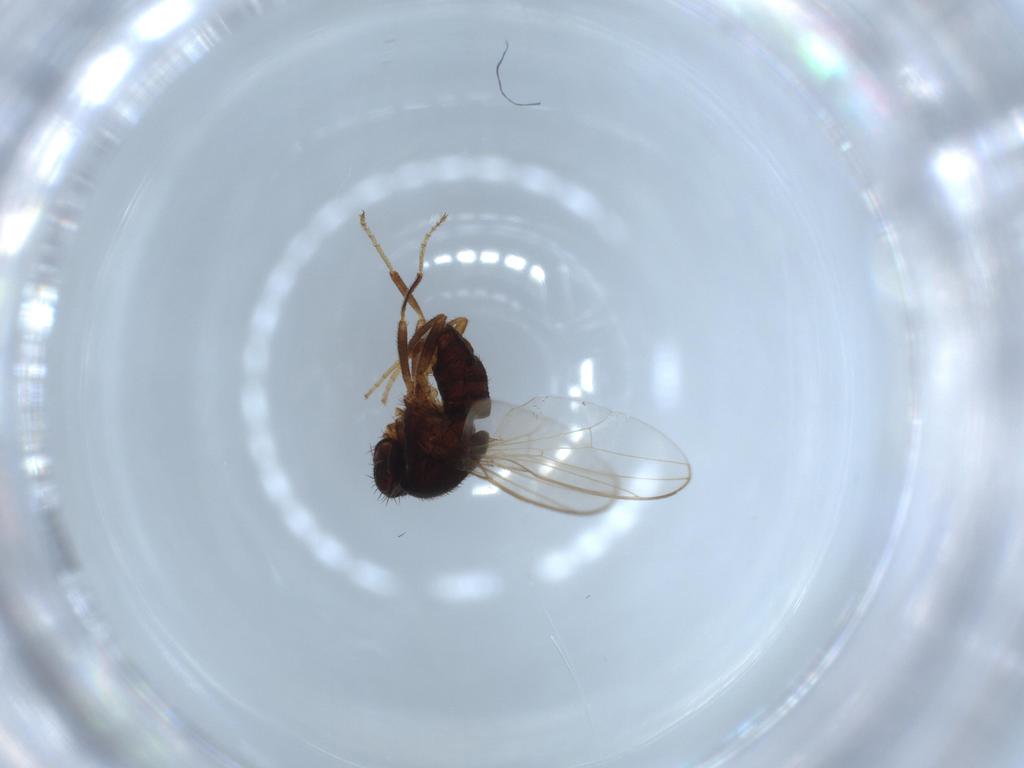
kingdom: Animalia
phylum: Arthropoda
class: Insecta
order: Diptera
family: Drosophilidae
